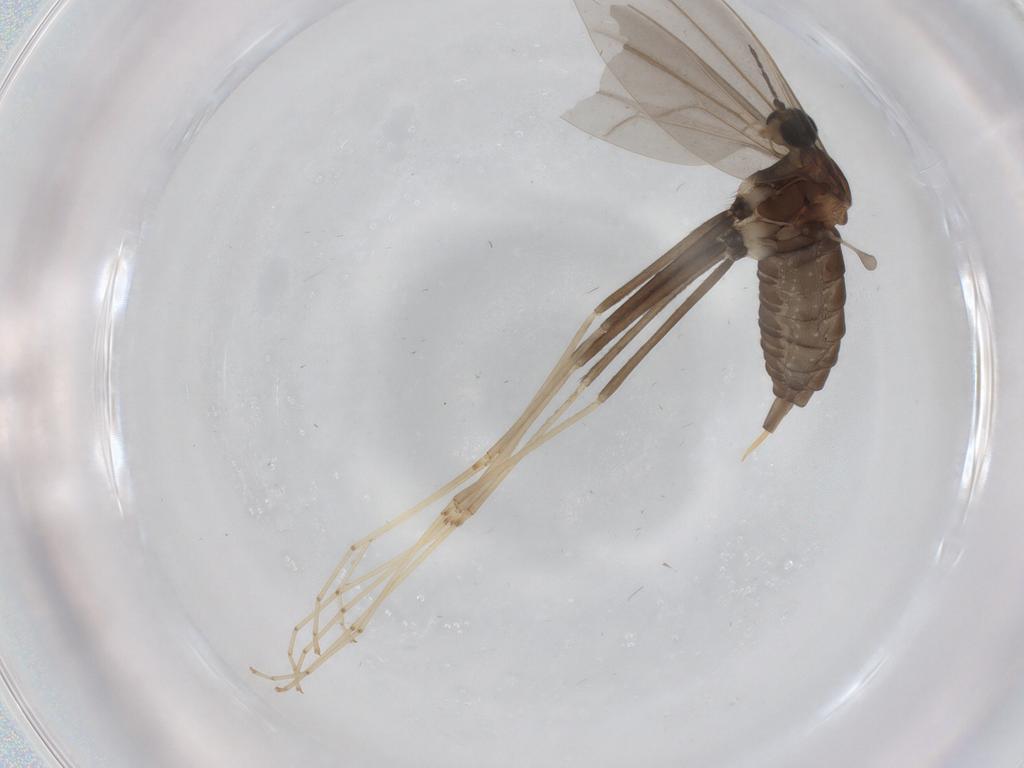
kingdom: Animalia
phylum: Arthropoda
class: Insecta
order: Diptera
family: Cecidomyiidae
